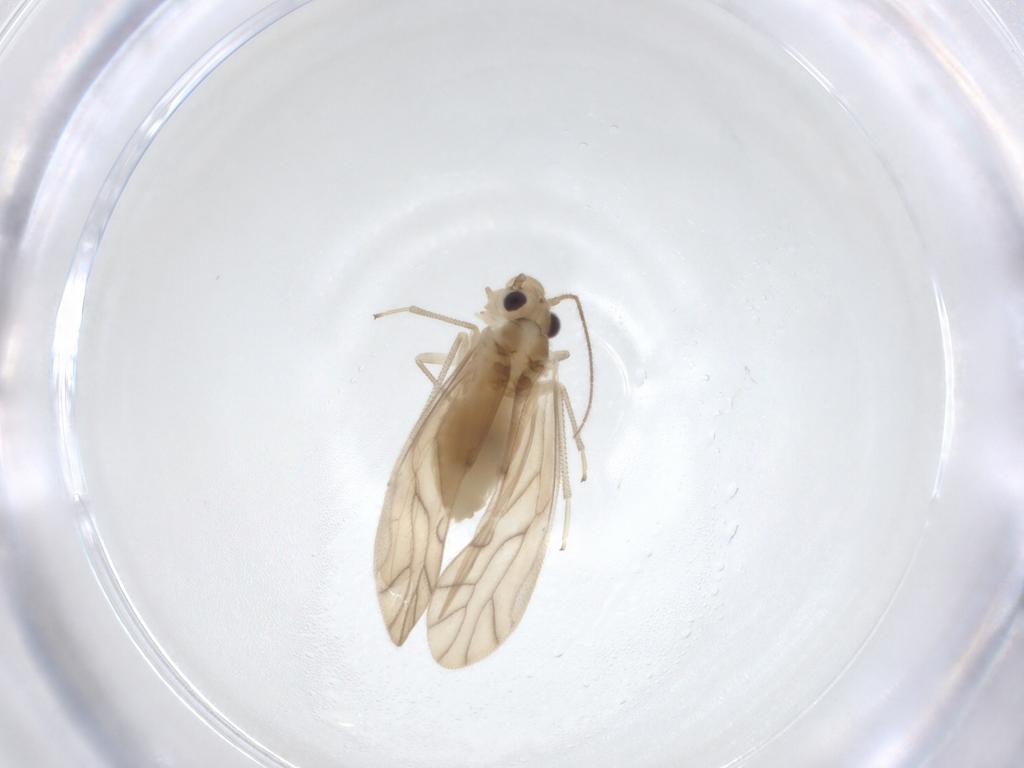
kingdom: Animalia
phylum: Arthropoda
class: Insecta
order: Psocodea
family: Caeciliusidae
